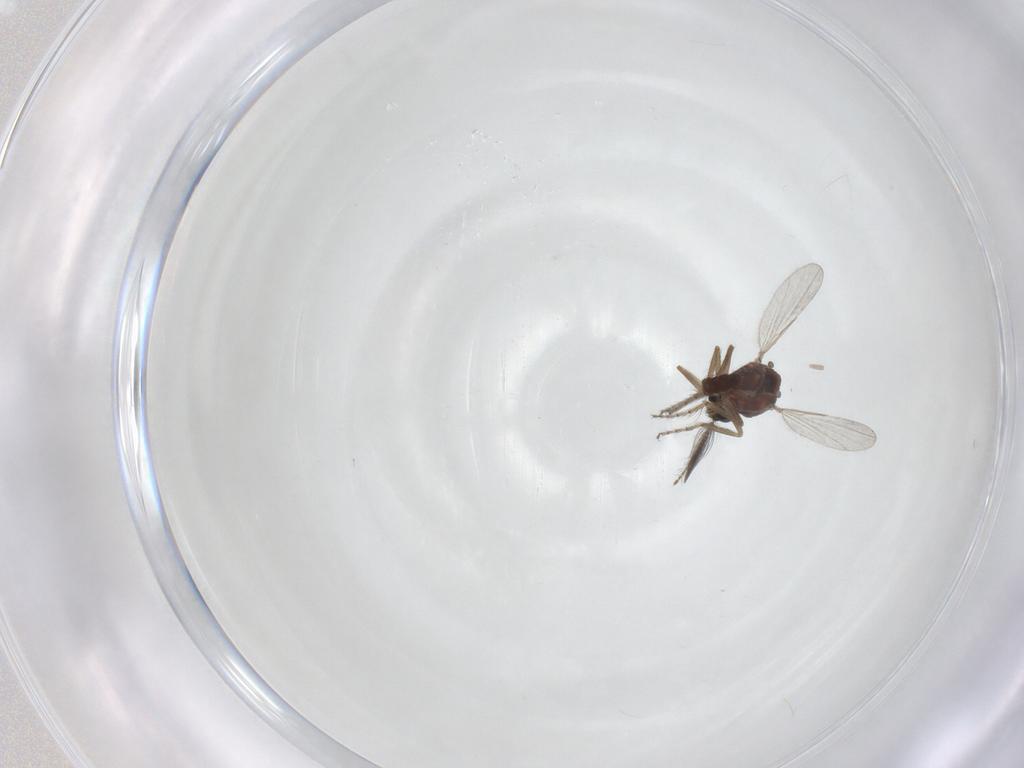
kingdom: Animalia
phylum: Arthropoda
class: Insecta
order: Diptera
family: Ceratopogonidae
